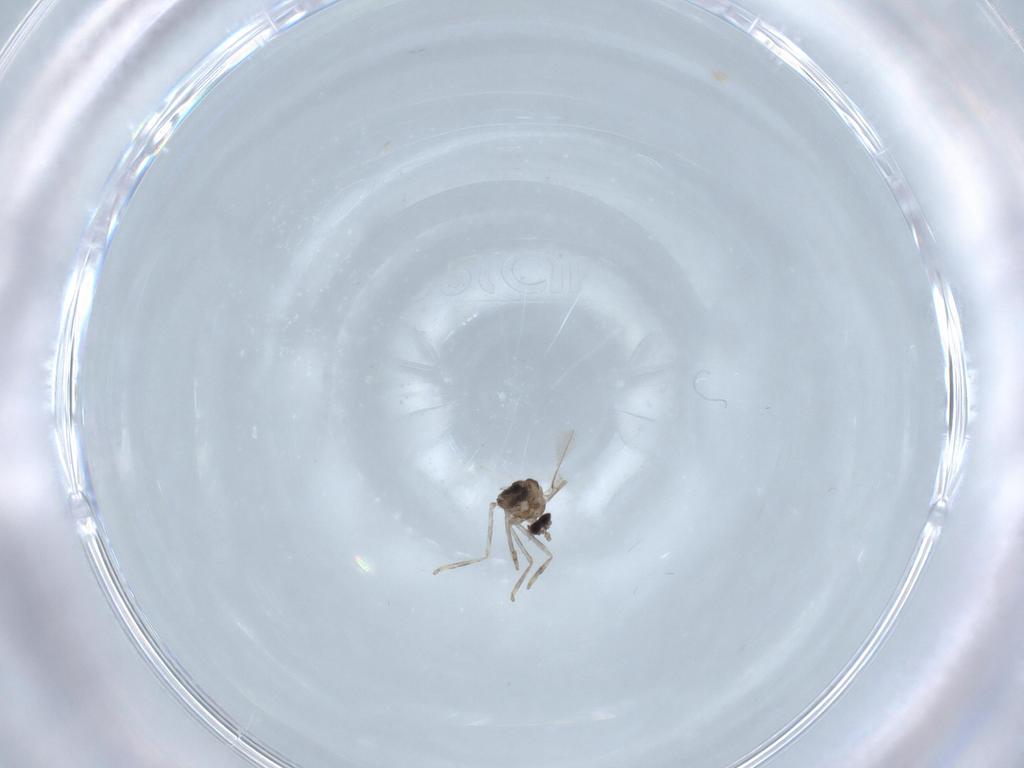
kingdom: Animalia
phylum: Arthropoda
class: Insecta
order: Diptera
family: Cecidomyiidae
